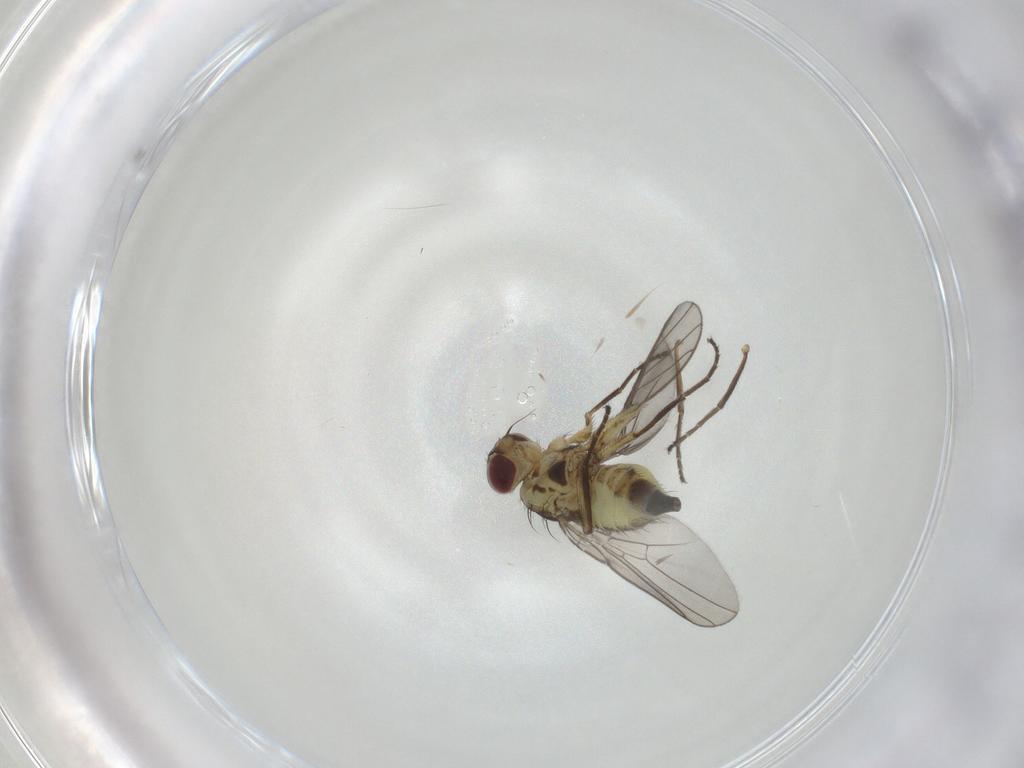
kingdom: Animalia
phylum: Arthropoda
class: Insecta
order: Diptera
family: Agromyzidae
